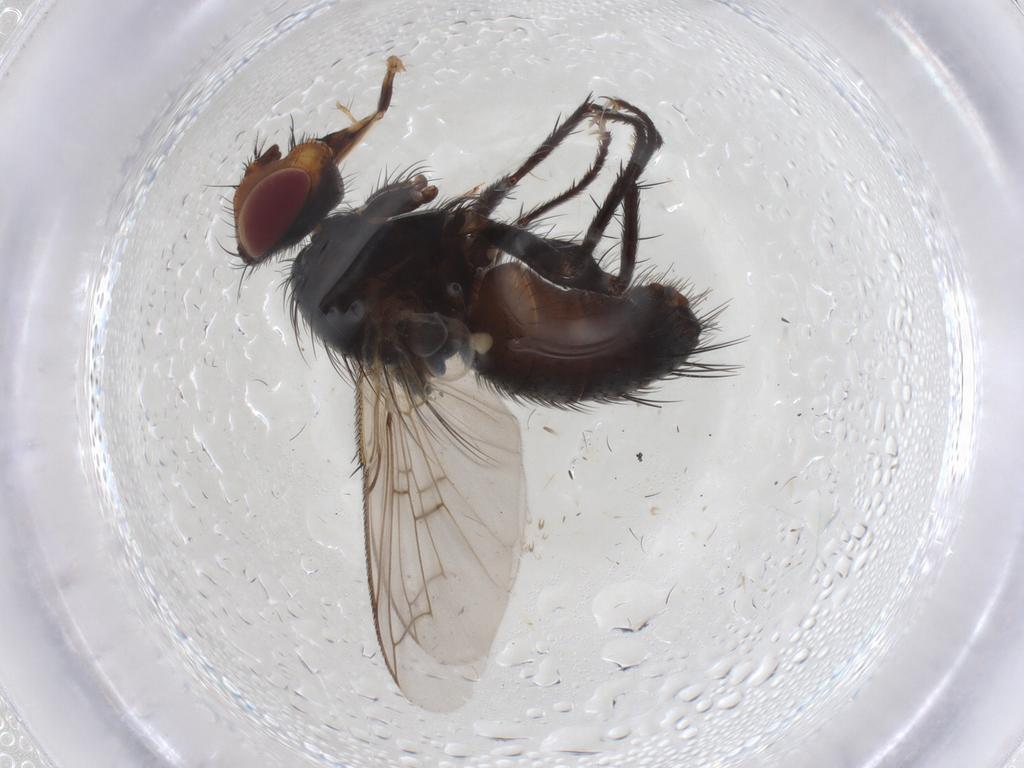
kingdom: Animalia
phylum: Arthropoda
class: Insecta
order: Diptera
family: Tachinidae
